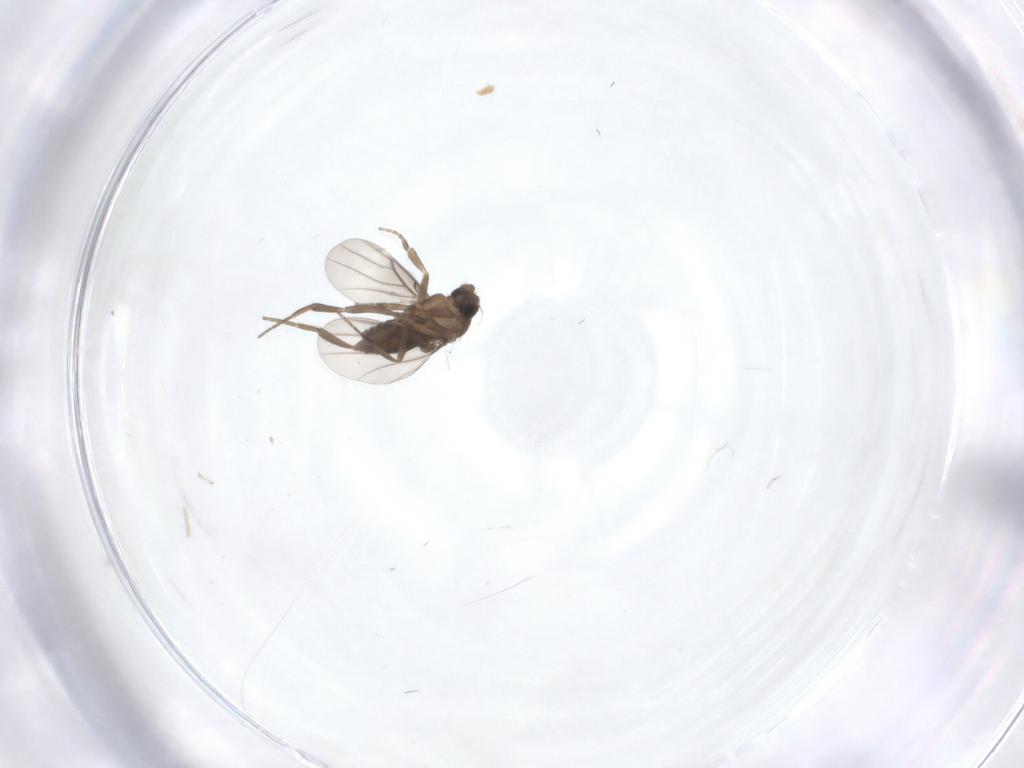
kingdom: Animalia
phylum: Arthropoda
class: Insecta
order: Diptera
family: Phoridae
